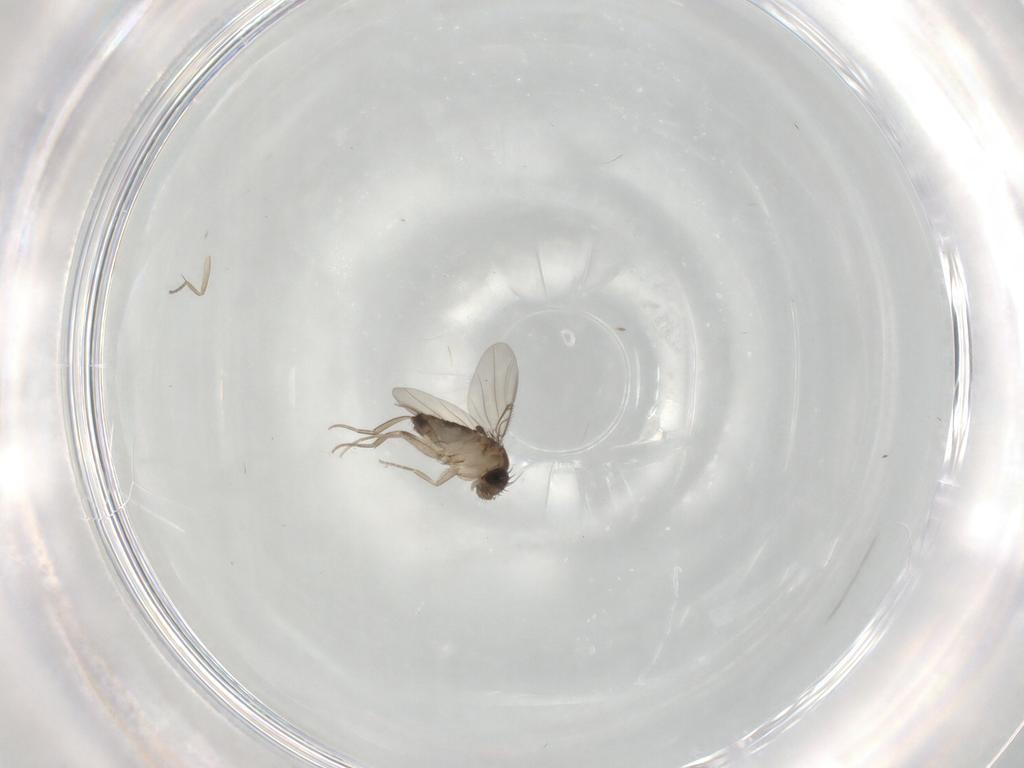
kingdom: Animalia
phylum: Arthropoda
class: Insecta
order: Diptera
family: Phoridae
